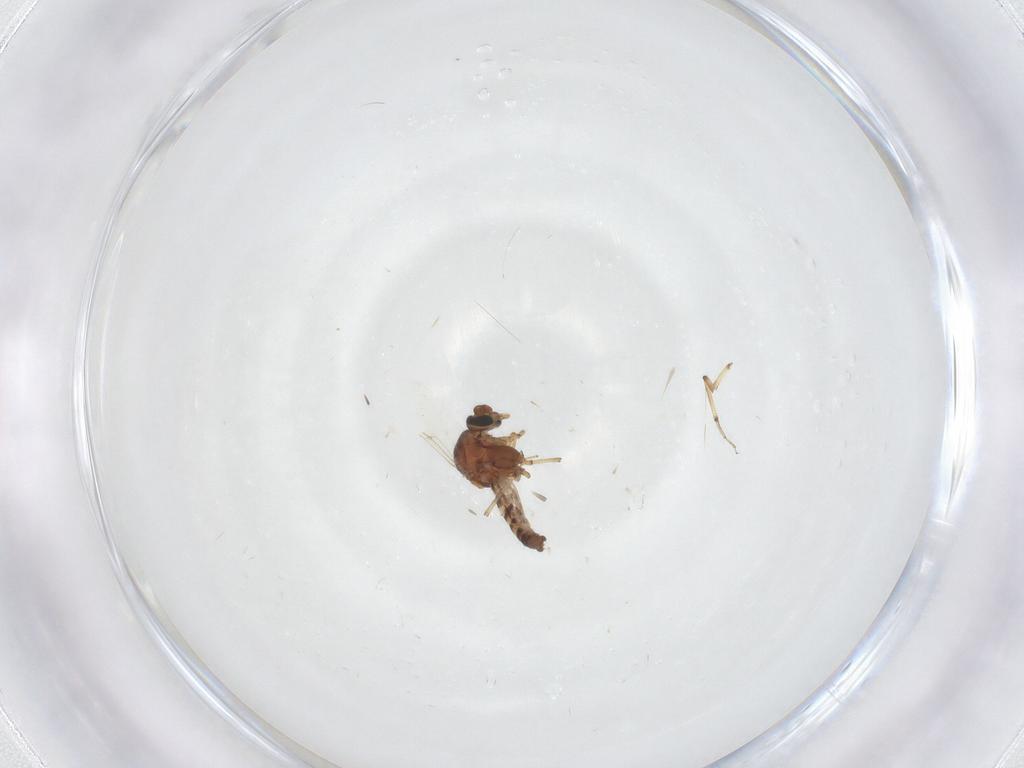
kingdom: Animalia
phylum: Arthropoda
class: Insecta
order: Diptera
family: Ceratopogonidae
